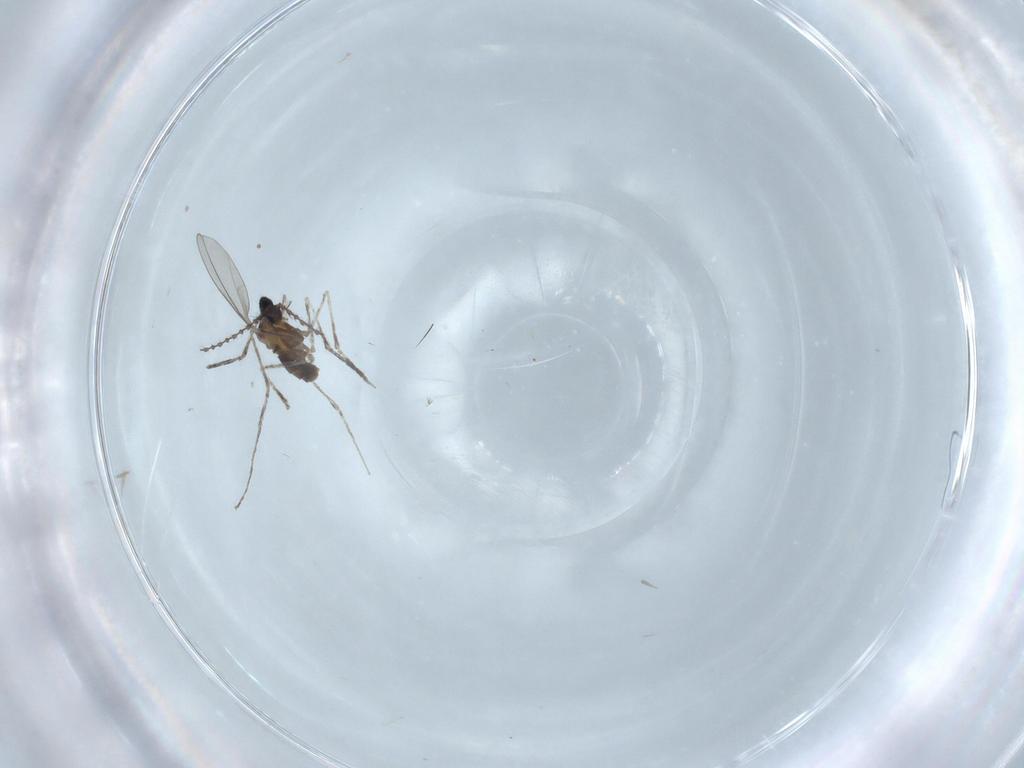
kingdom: Animalia
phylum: Arthropoda
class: Insecta
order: Diptera
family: Cecidomyiidae
